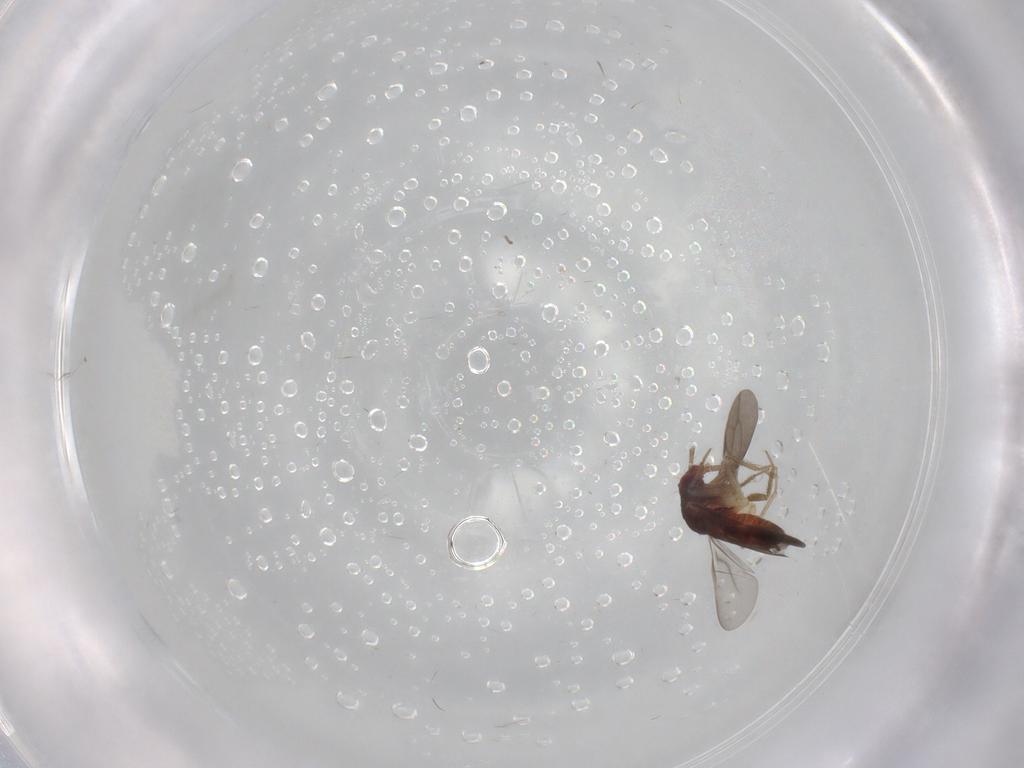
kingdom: Animalia
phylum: Arthropoda
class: Insecta
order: Hemiptera
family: Ceratocombidae
